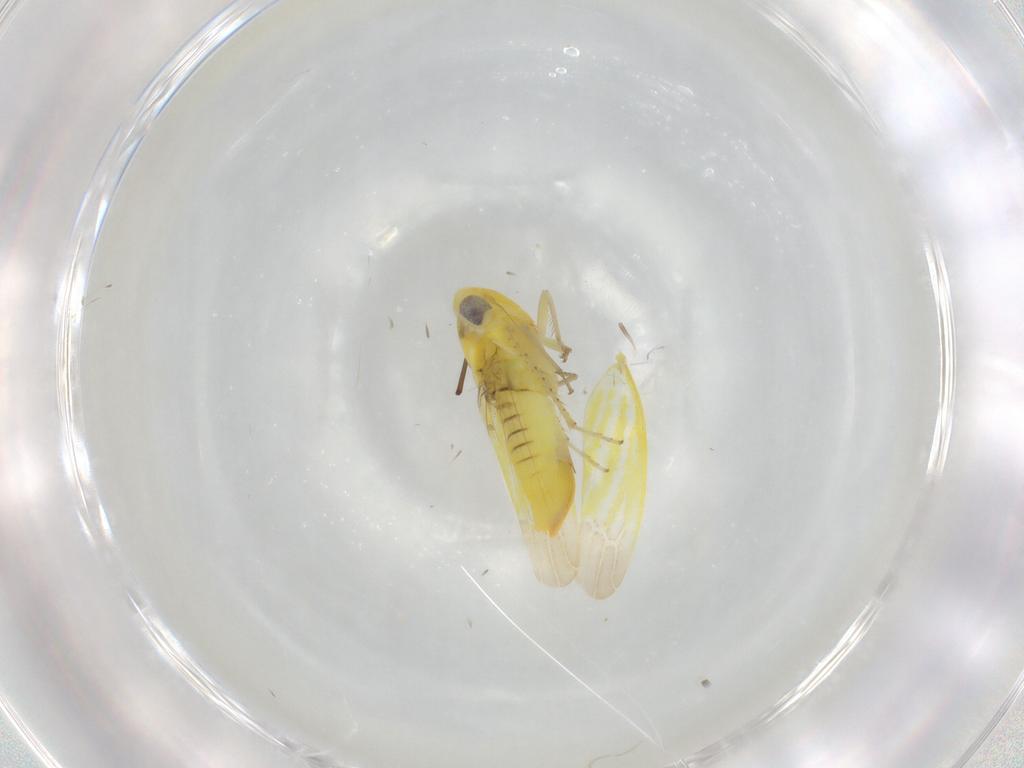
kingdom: Animalia
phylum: Arthropoda
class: Insecta
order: Hemiptera
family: Cicadellidae
